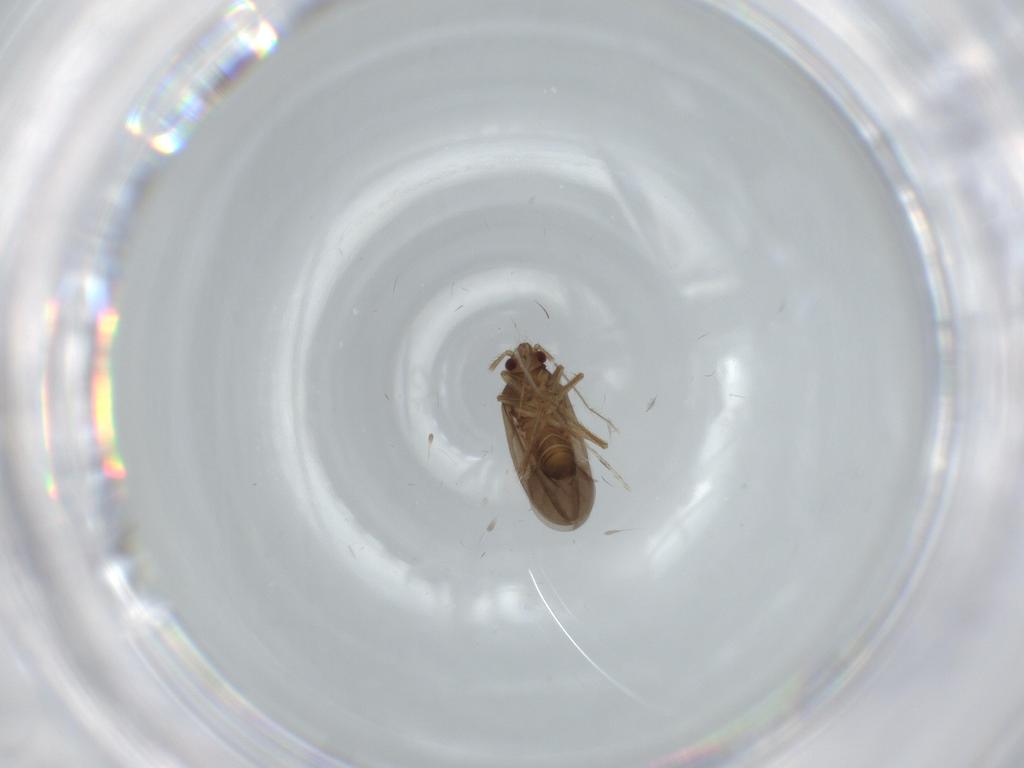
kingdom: Animalia
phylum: Arthropoda
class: Insecta
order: Hemiptera
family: Ceratocombidae
